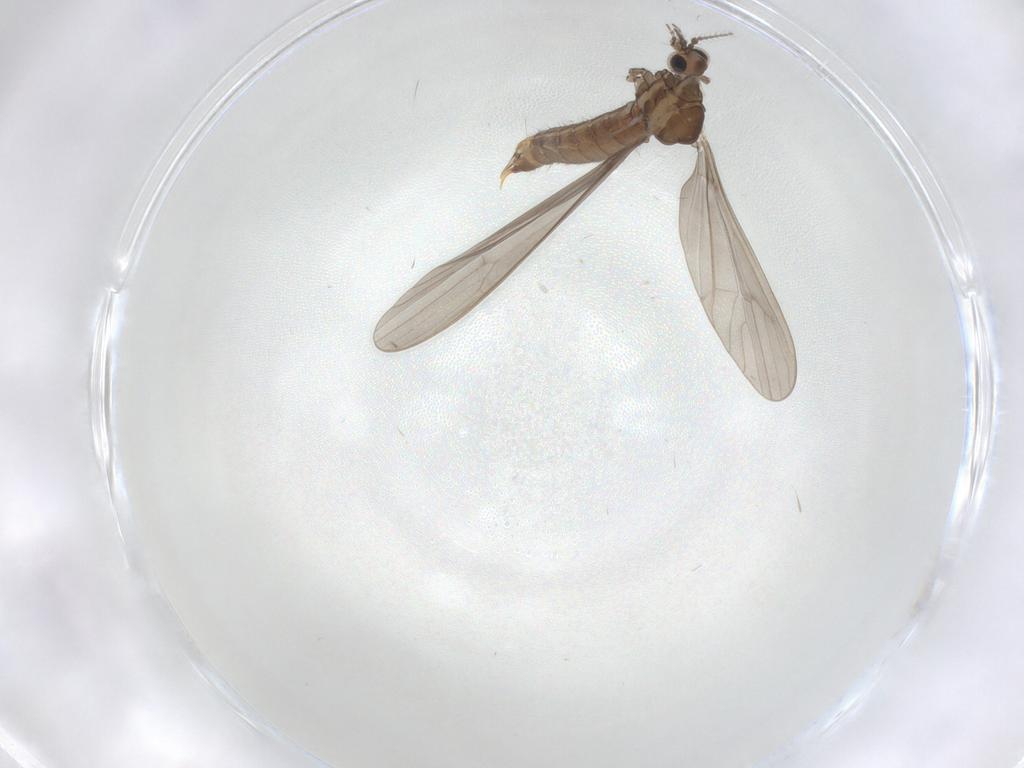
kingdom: Animalia
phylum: Arthropoda
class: Insecta
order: Diptera
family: Limoniidae
